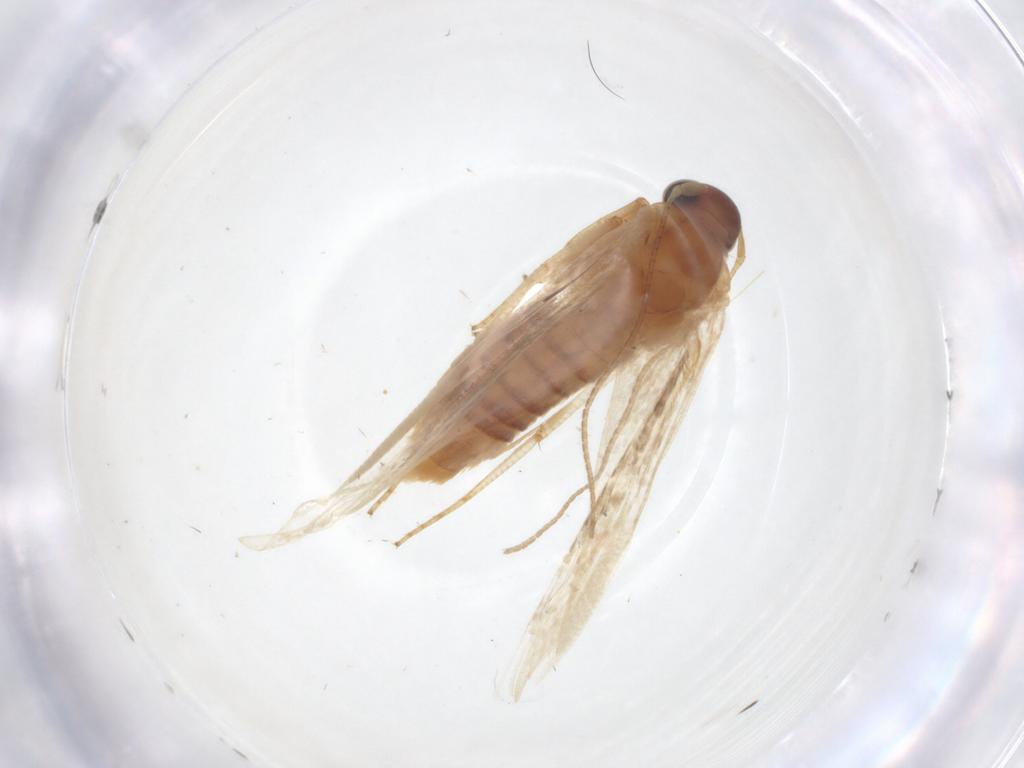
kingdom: Animalia
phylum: Arthropoda
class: Insecta
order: Lepidoptera
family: Blastobasidae
